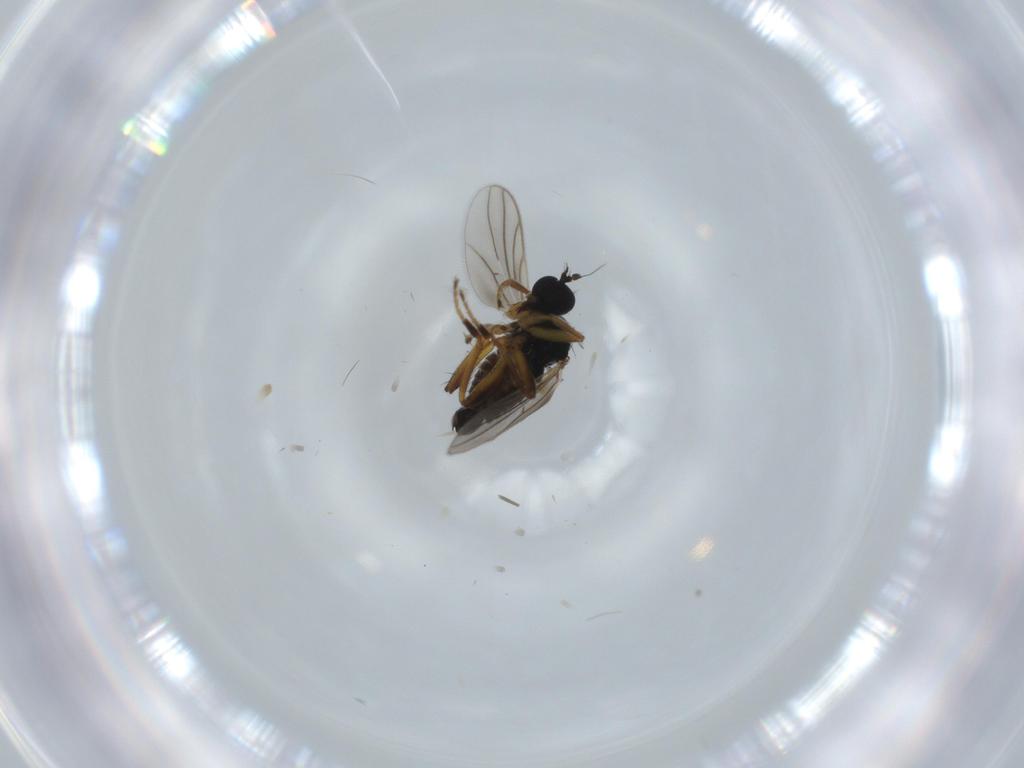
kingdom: Animalia
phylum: Arthropoda
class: Insecta
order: Diptera
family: Hybotidae
